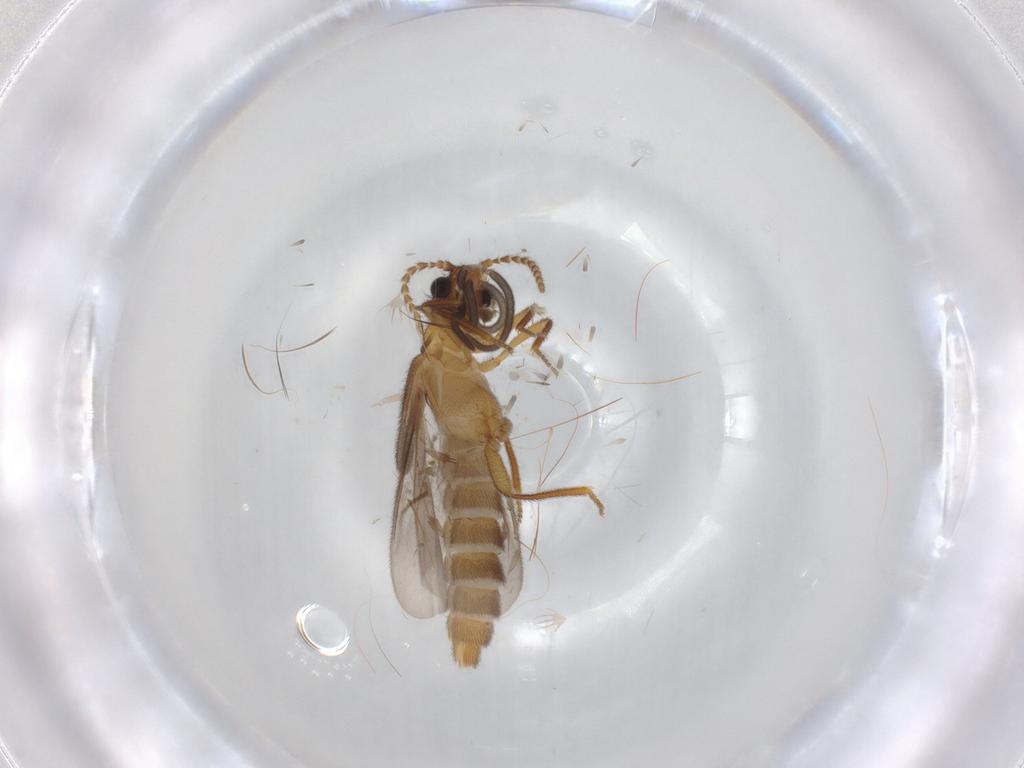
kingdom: Animalia
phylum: Arthropoda
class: Insecta
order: Coleoptera
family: Omethidae
